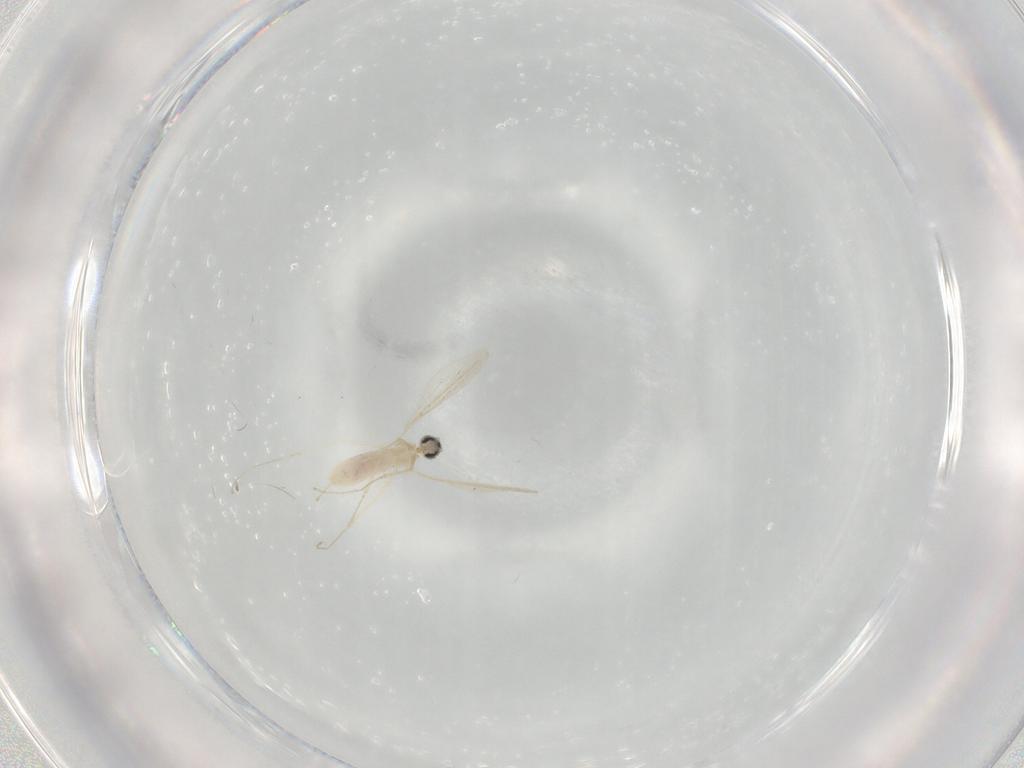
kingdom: Animalia
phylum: Arthropoda
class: Insecta
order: Diptera
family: Cecidomyiidae
